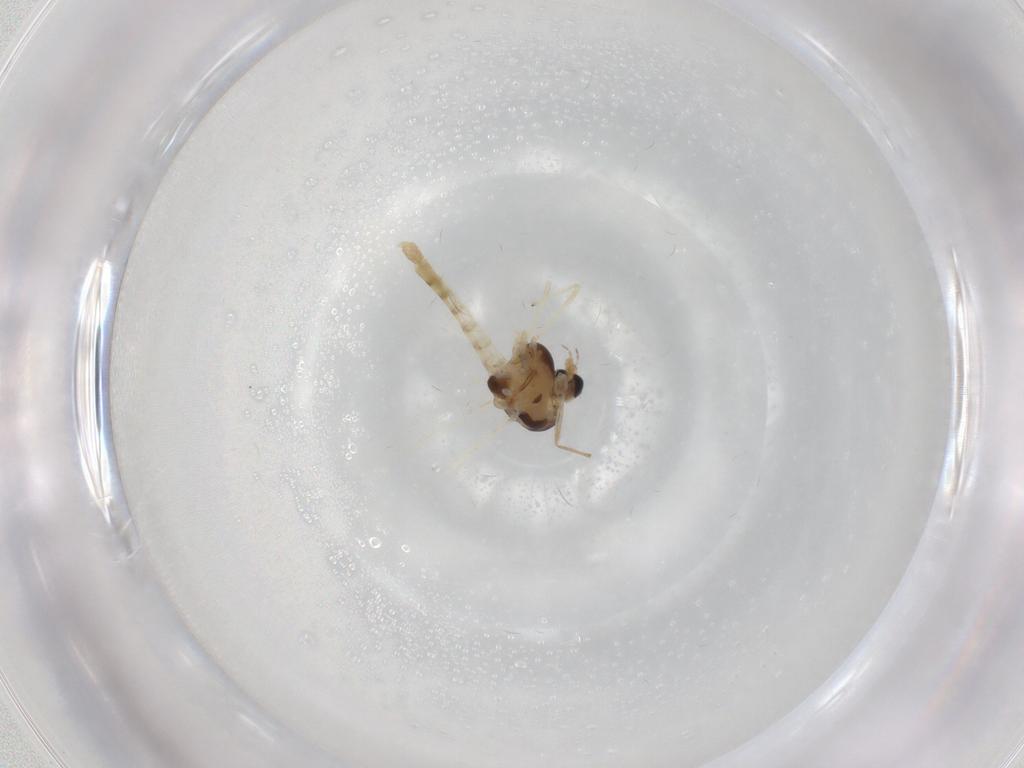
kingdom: Animalia
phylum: Arthropoda
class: Insecta
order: Diptera
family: Chironomidae
